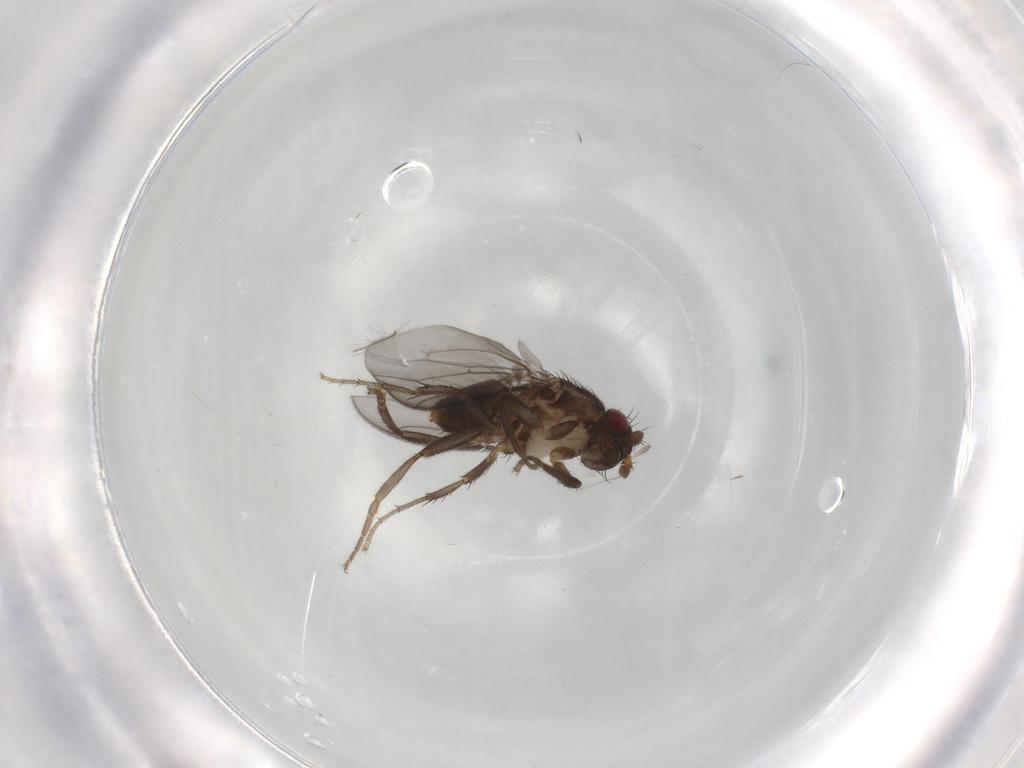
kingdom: Animalia
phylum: Arthropoda
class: Insecta
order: Diptera
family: Sphaeroceridae
